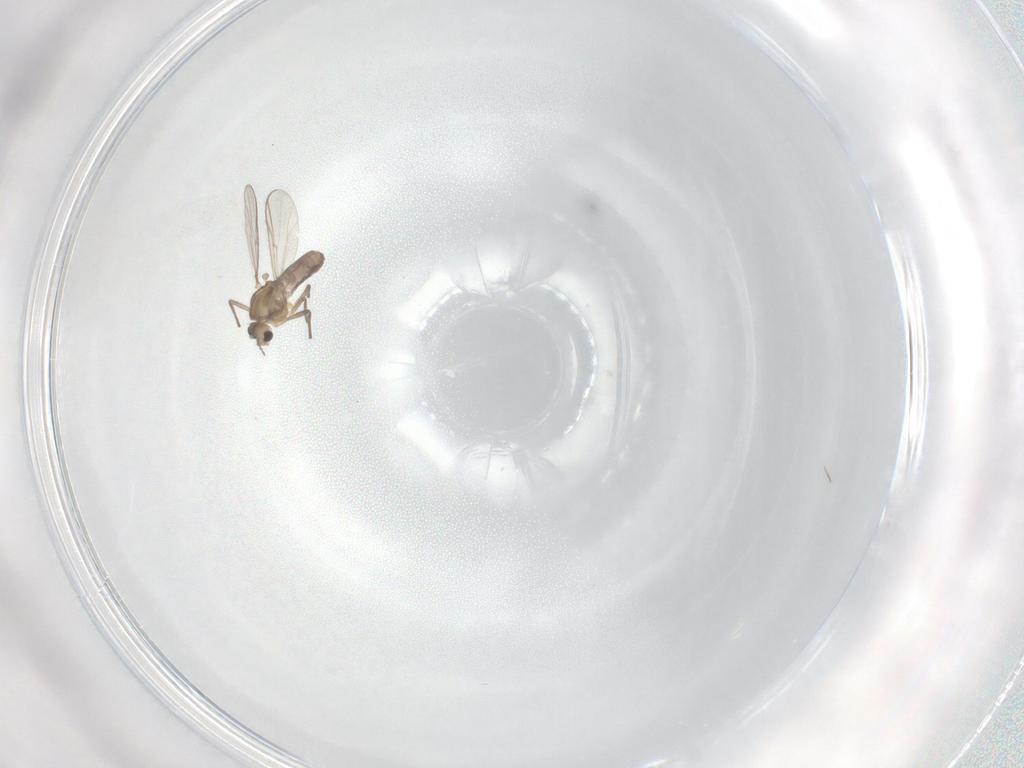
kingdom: Animalia
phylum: Arthropoda
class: Insecta
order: Diptera
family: Chironomidae
